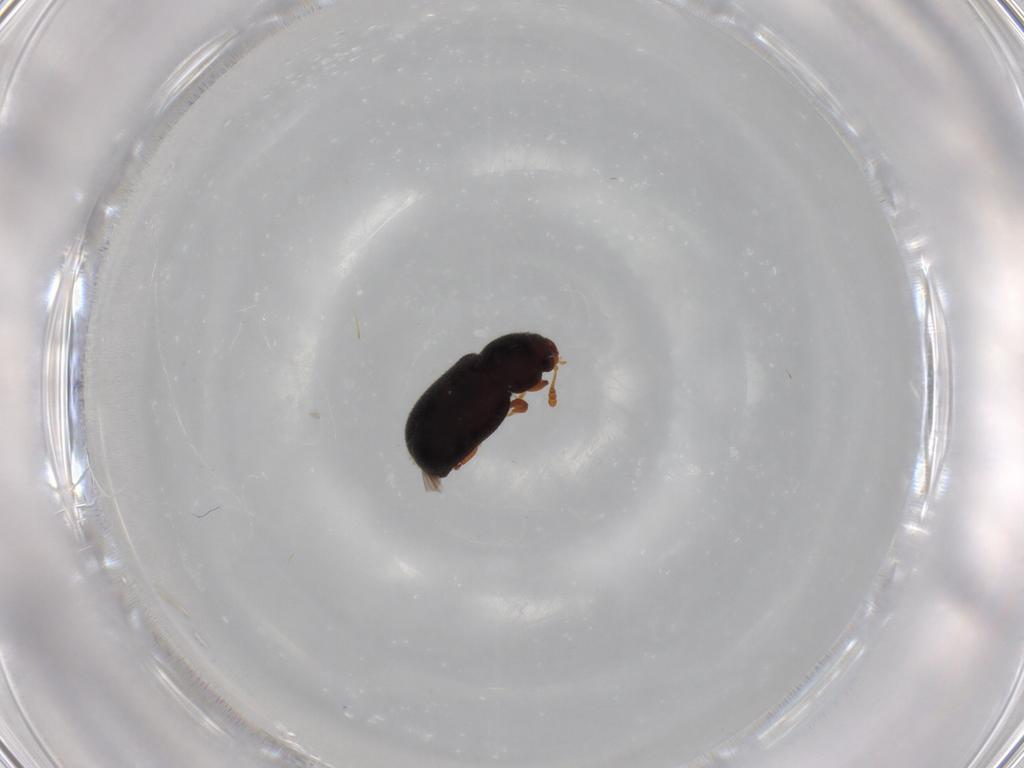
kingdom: Animalia
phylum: Arthropoda
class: Insecta
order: Coleoptera
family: Sphindidae
